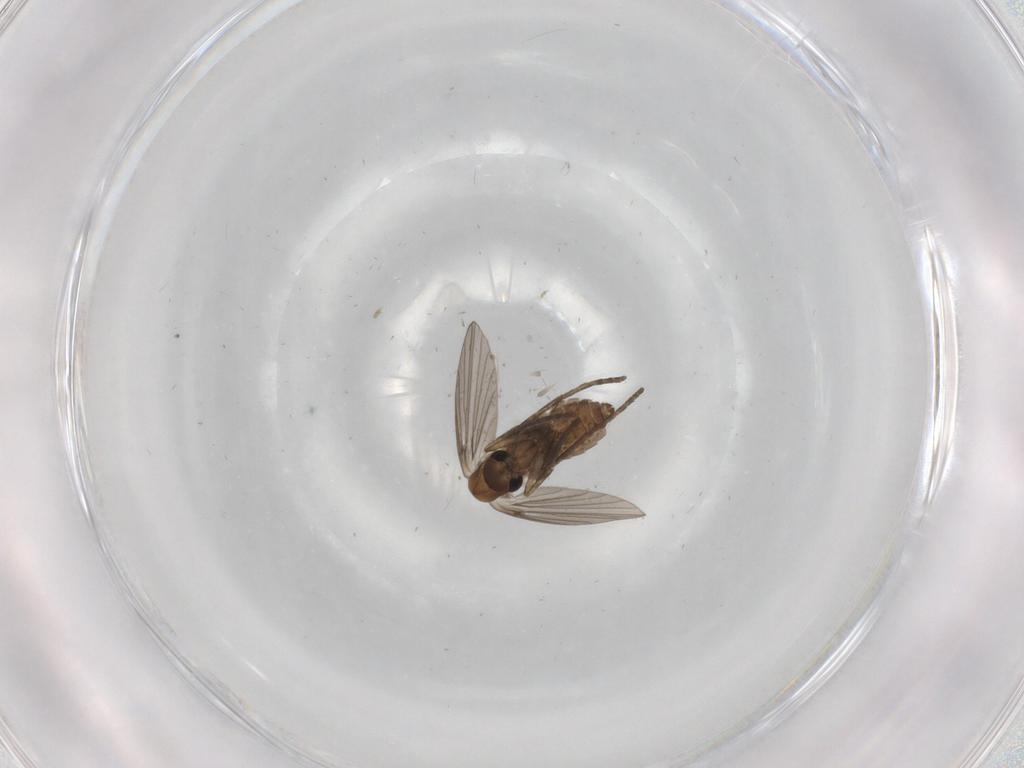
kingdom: Animalia
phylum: Arthropoda
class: Insecta
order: Diptera
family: Psychodidae
